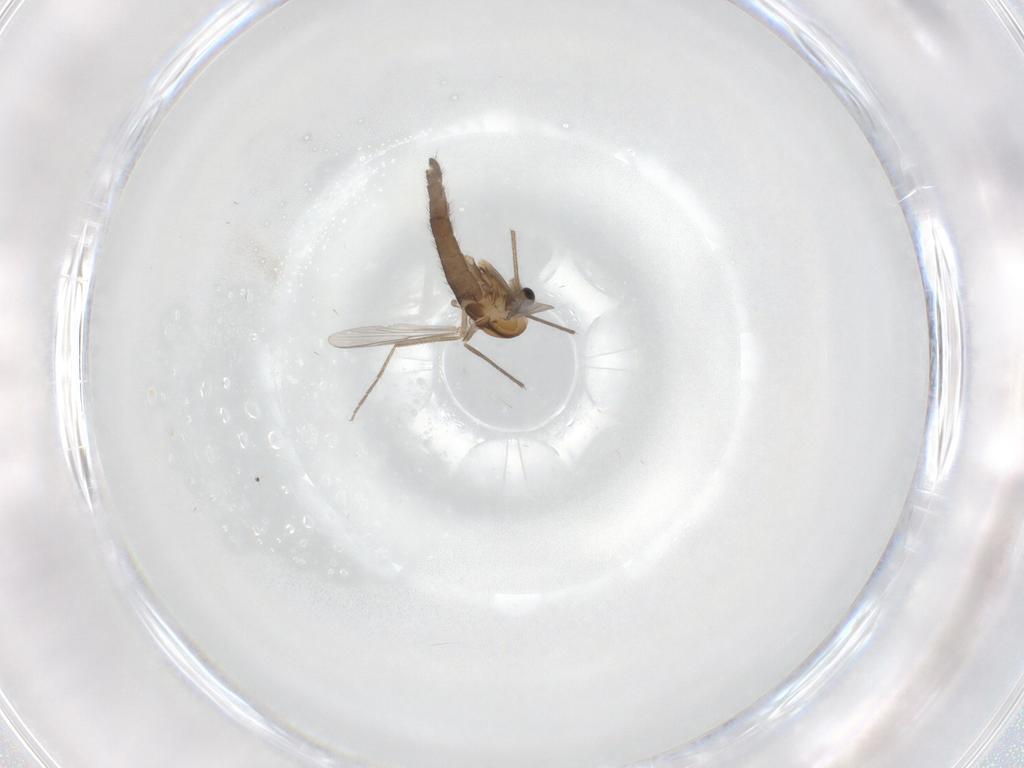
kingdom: Animalia
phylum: Arthropoda
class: Insecta
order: Diptera
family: Chironomidae
